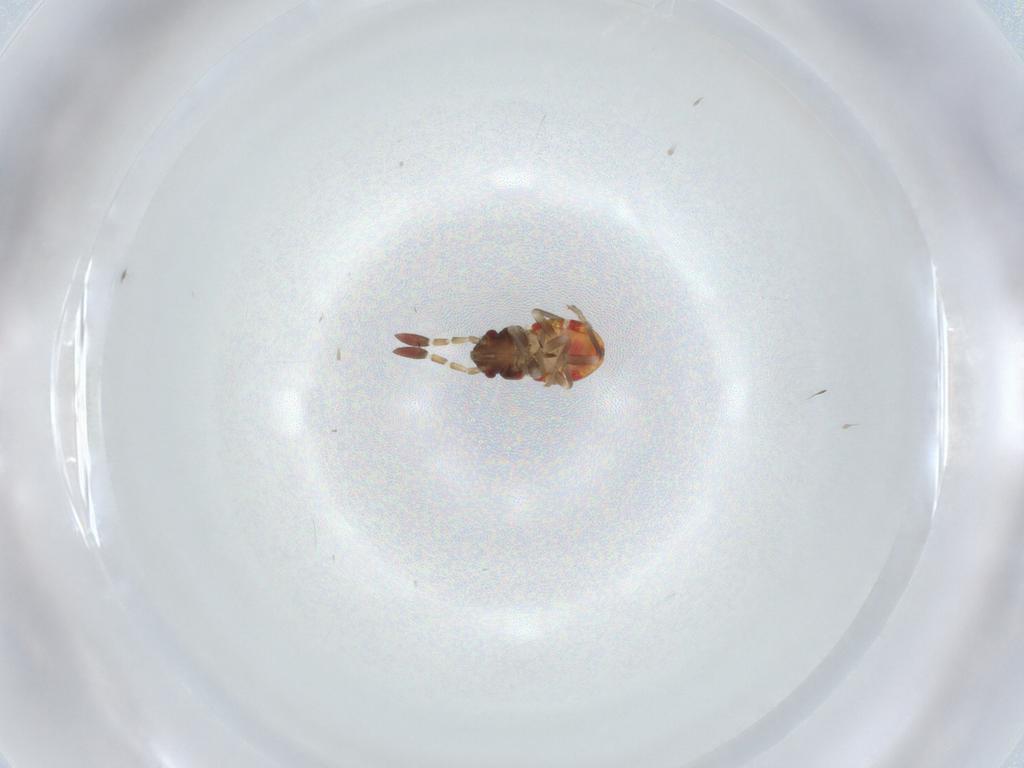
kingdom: Animalia
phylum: Arthropoda
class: Insecta
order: Hemiptera
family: Rhyparochromidae
